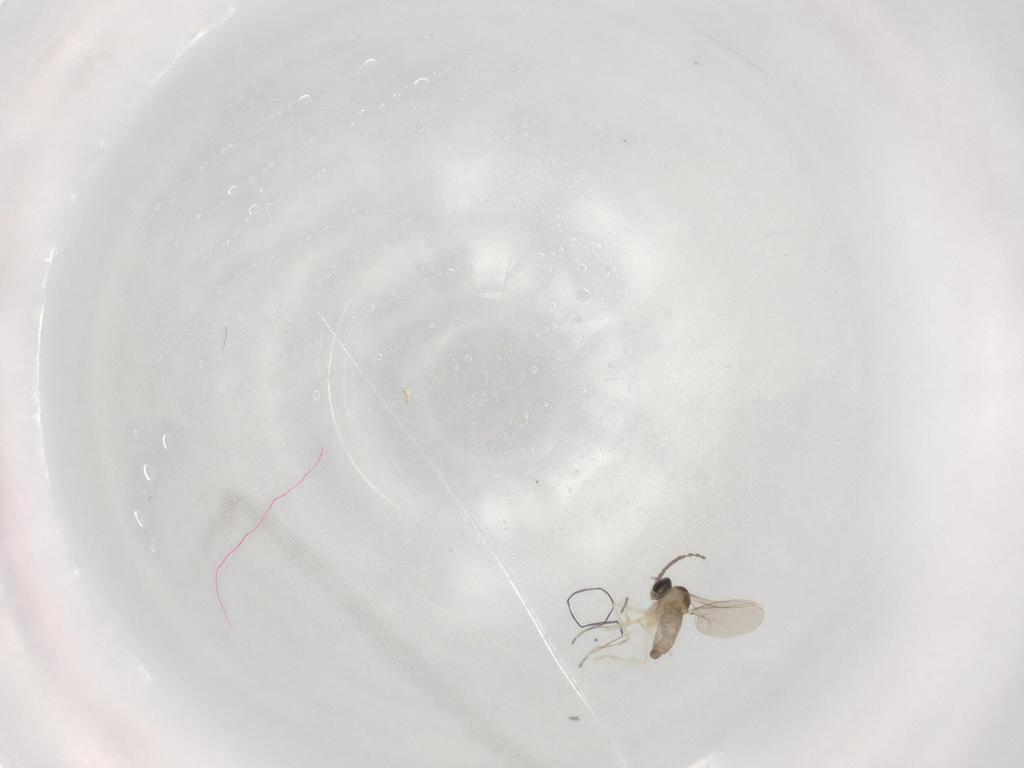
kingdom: Animalia
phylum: Arthropoda
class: Insecta
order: Diptera
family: Cecidomyiidae
